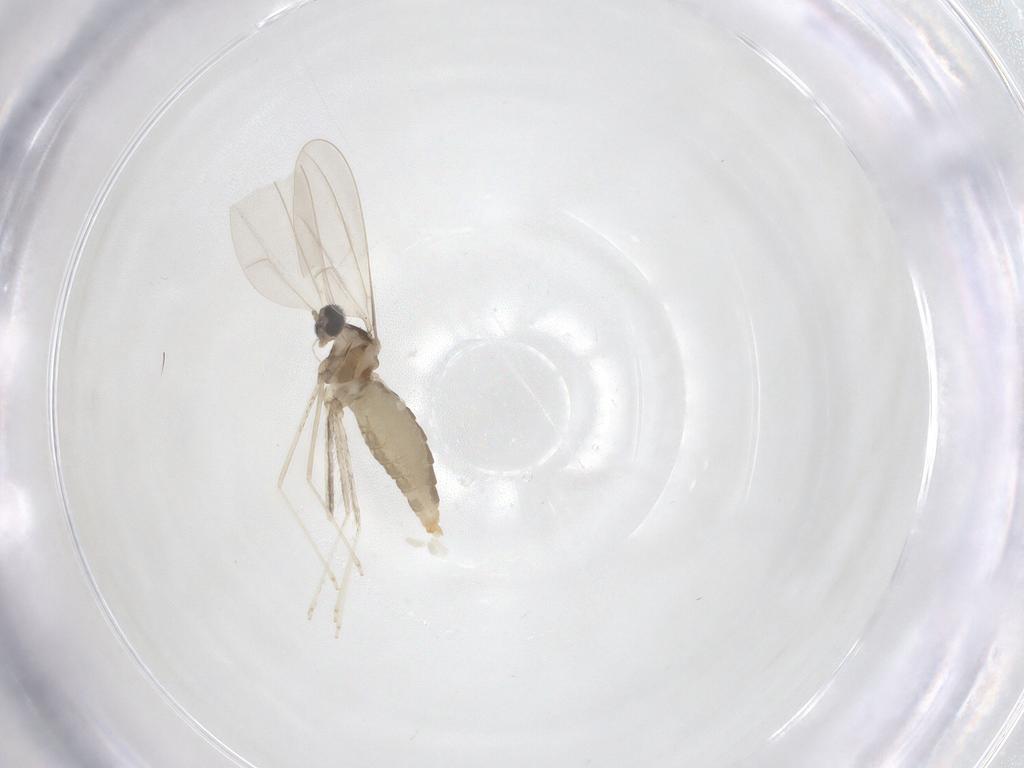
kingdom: Animalia
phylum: Arthropoda
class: Insecta
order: Diptera
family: Cecidomyiidae
